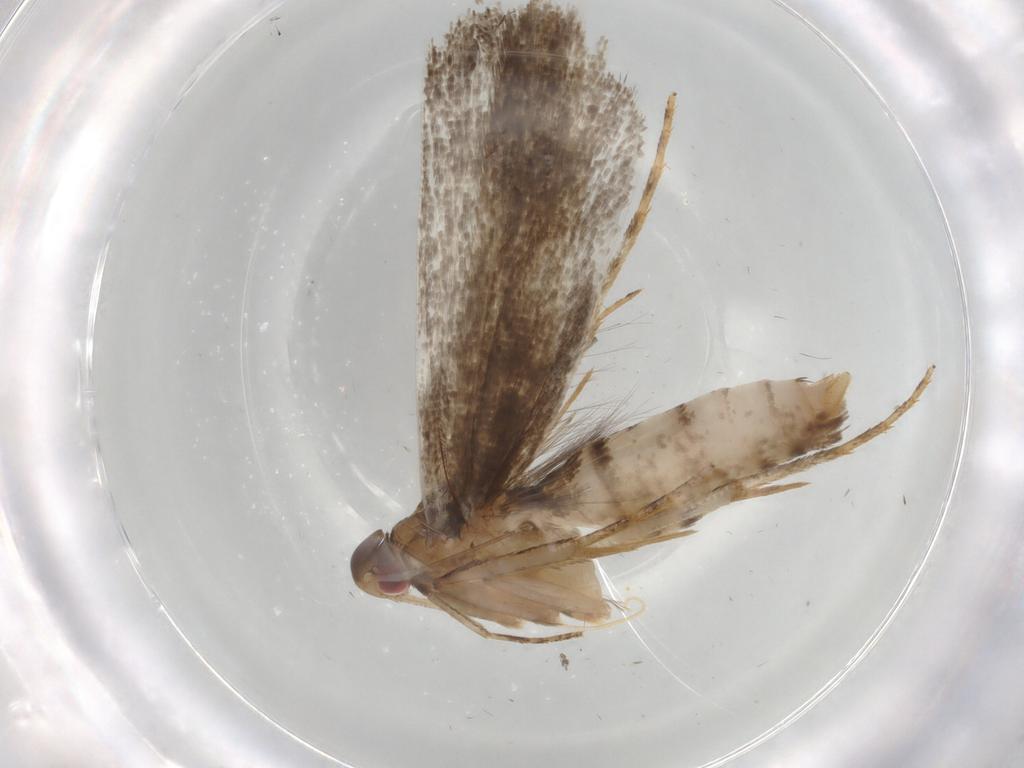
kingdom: Animalia
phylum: Arthropoda
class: Insecta
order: Lepidoptera
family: Gelechiidae
